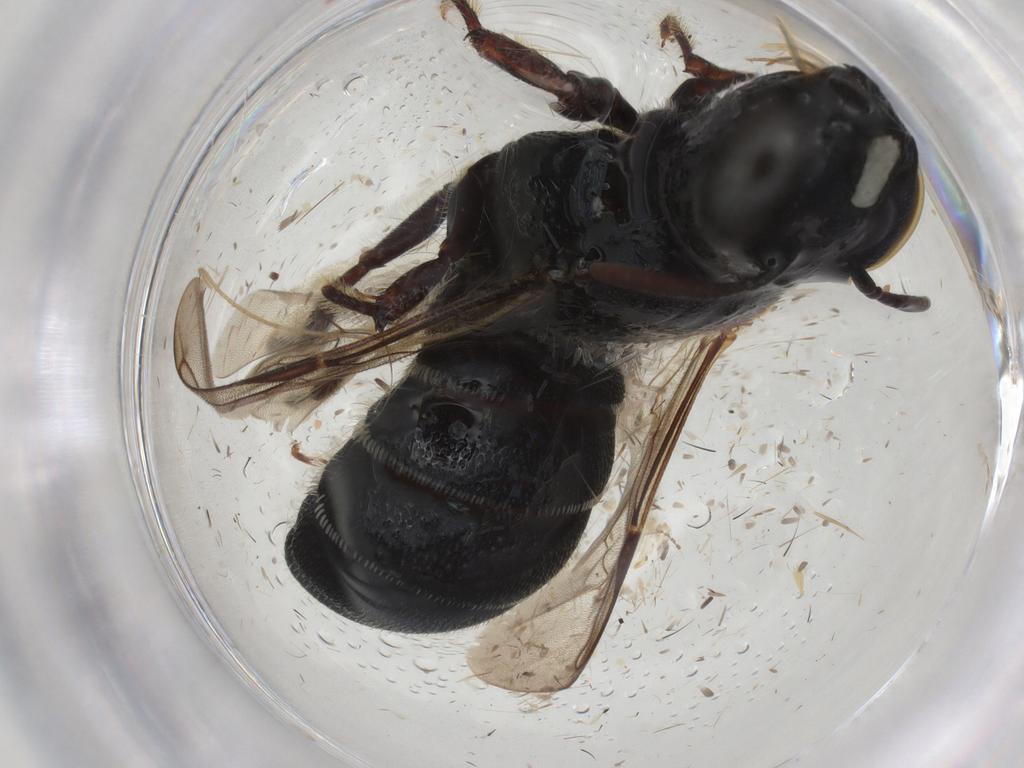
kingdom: Animalia
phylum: Arthropoda
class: Insecta
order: Hymenoptera
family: Apidae
